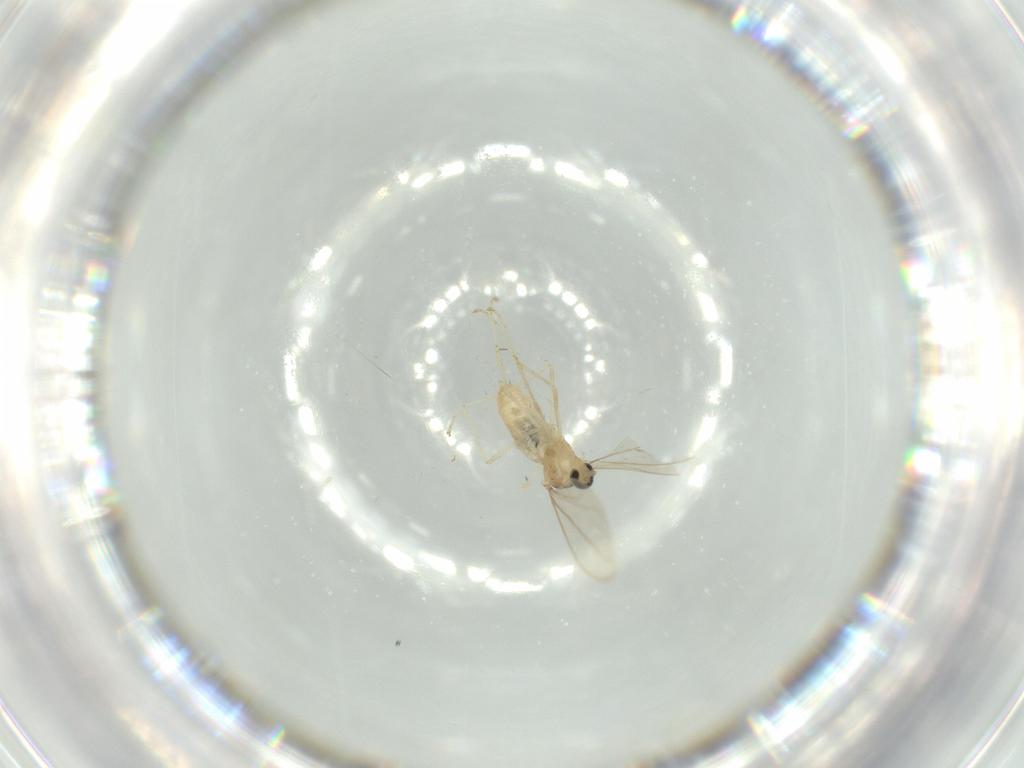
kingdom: Animalia
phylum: Arthropoda
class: Insecta
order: Diptera
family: Cecidomyiidae
